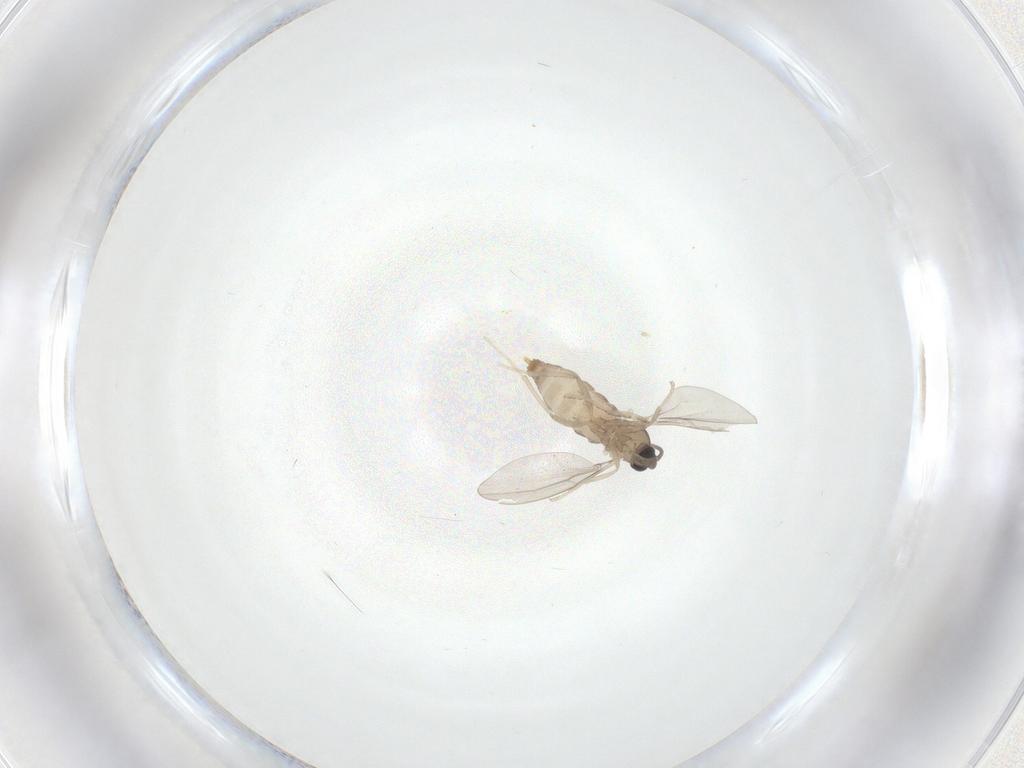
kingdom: Animalia
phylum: Arthropoda
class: Insecta
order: Diptera
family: Cecidomyiidae
